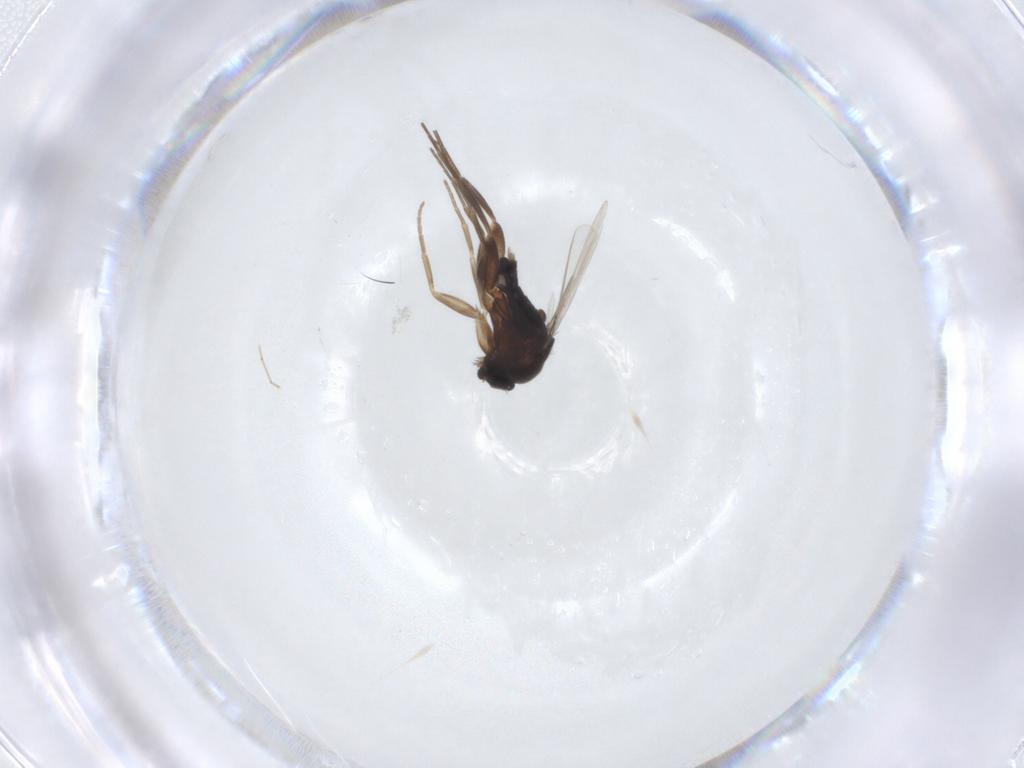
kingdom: Animalia
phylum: Arthropoda
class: Insecta
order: Diptera
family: Phoridae
